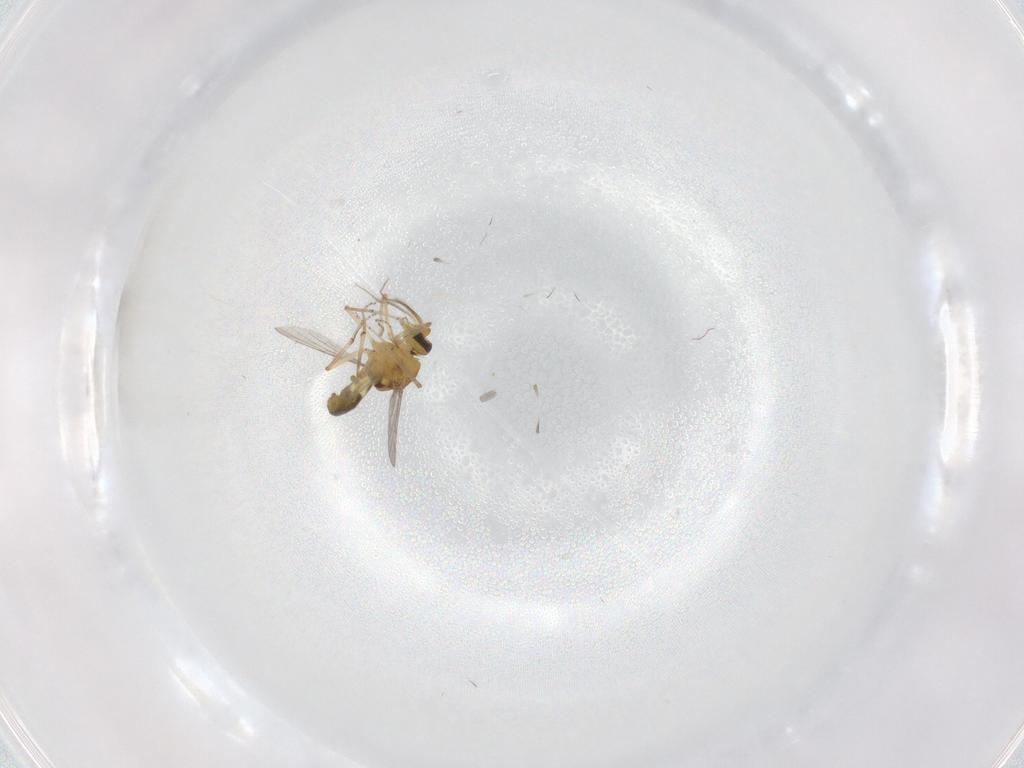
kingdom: Animalia
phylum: Arthropoda
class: Insecta
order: Diptera
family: Ceratopogonidae
